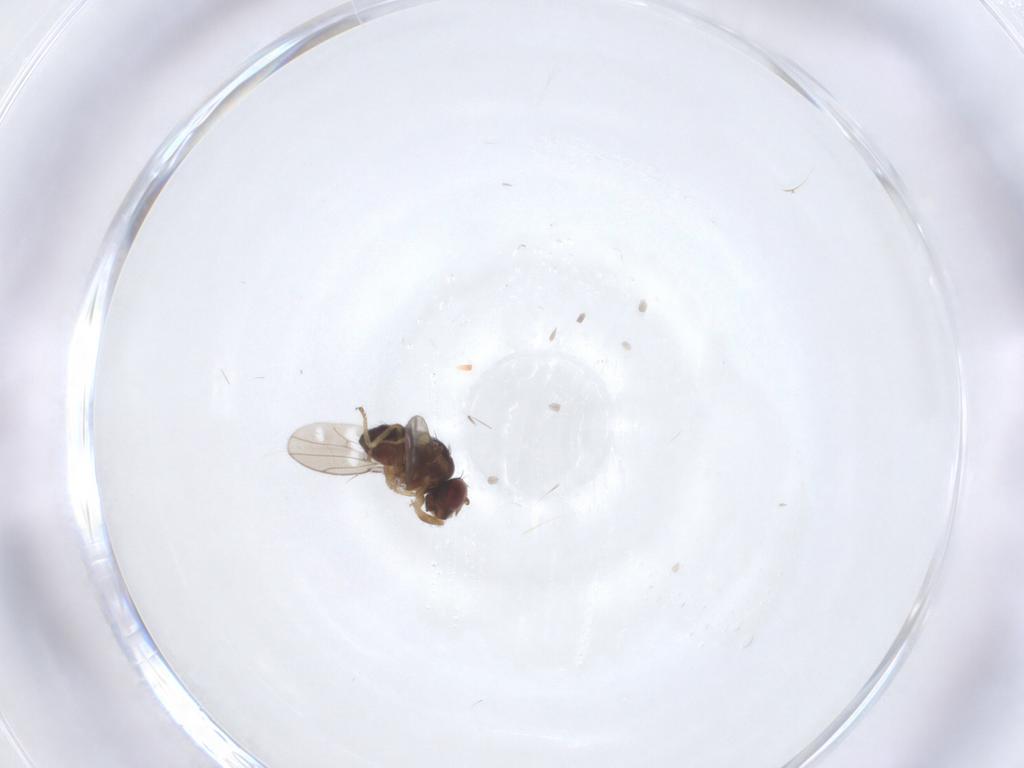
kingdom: Animalia
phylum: Arthropoda
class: Insecta
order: Diptera
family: Ephydridae
